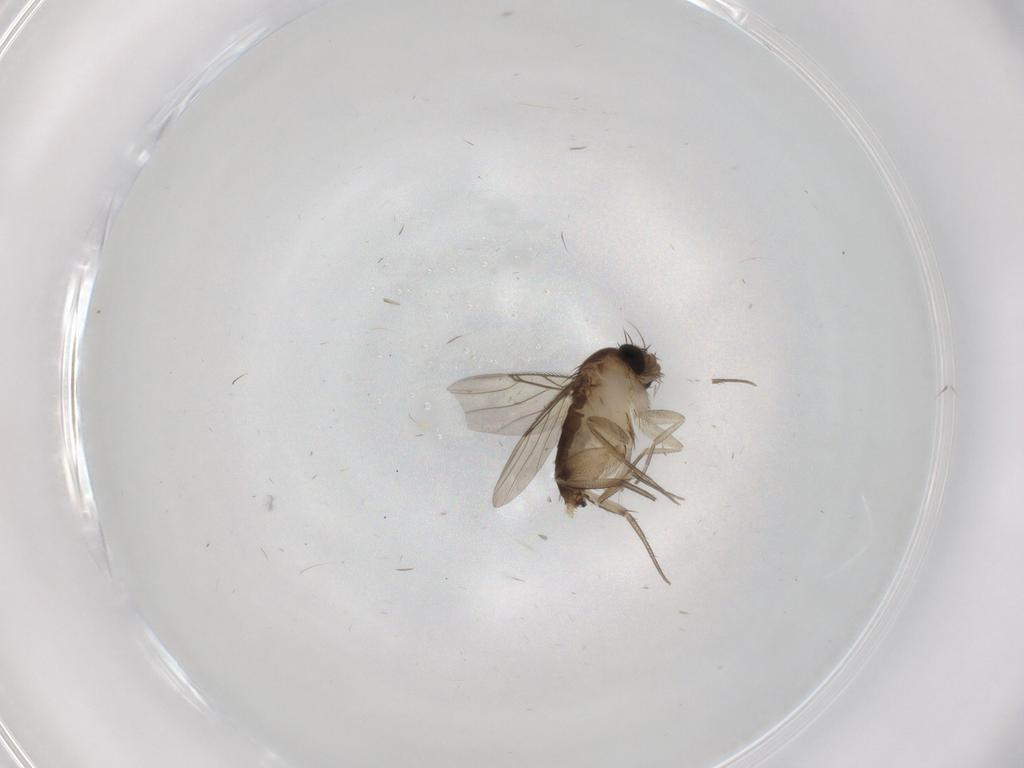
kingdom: Animalia
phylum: Arthropoda
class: Insecta
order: Diptera
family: Phoridae
